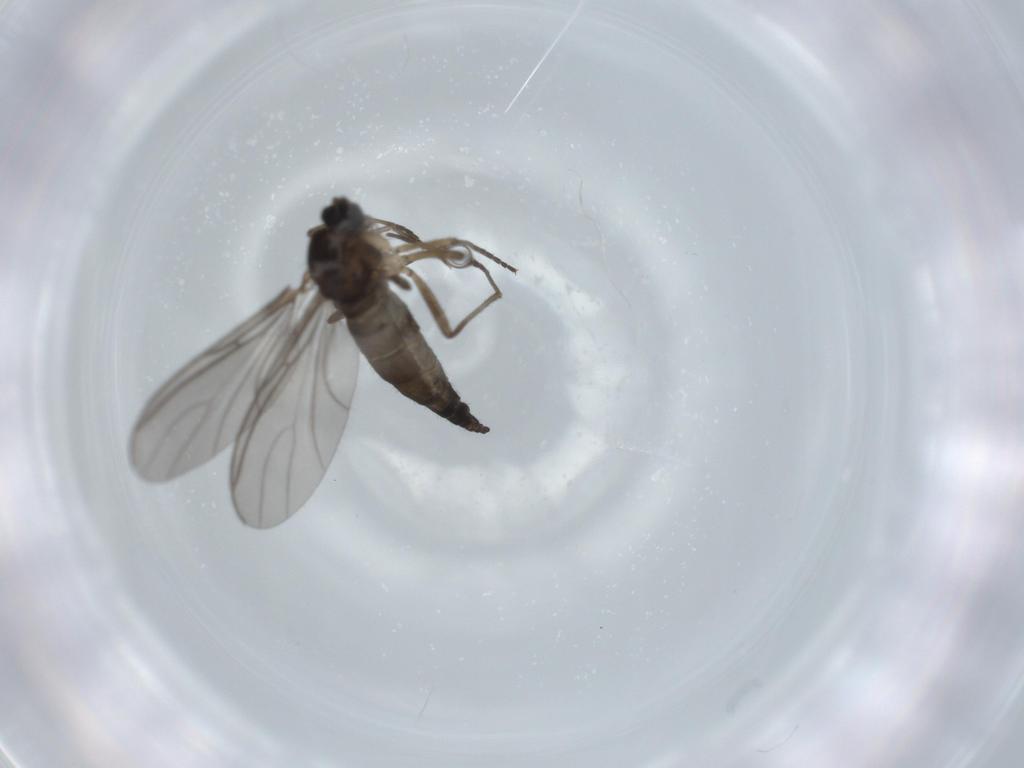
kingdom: Animalia
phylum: Arthropoda
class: Insecta
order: Diptera
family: Sciaridae
